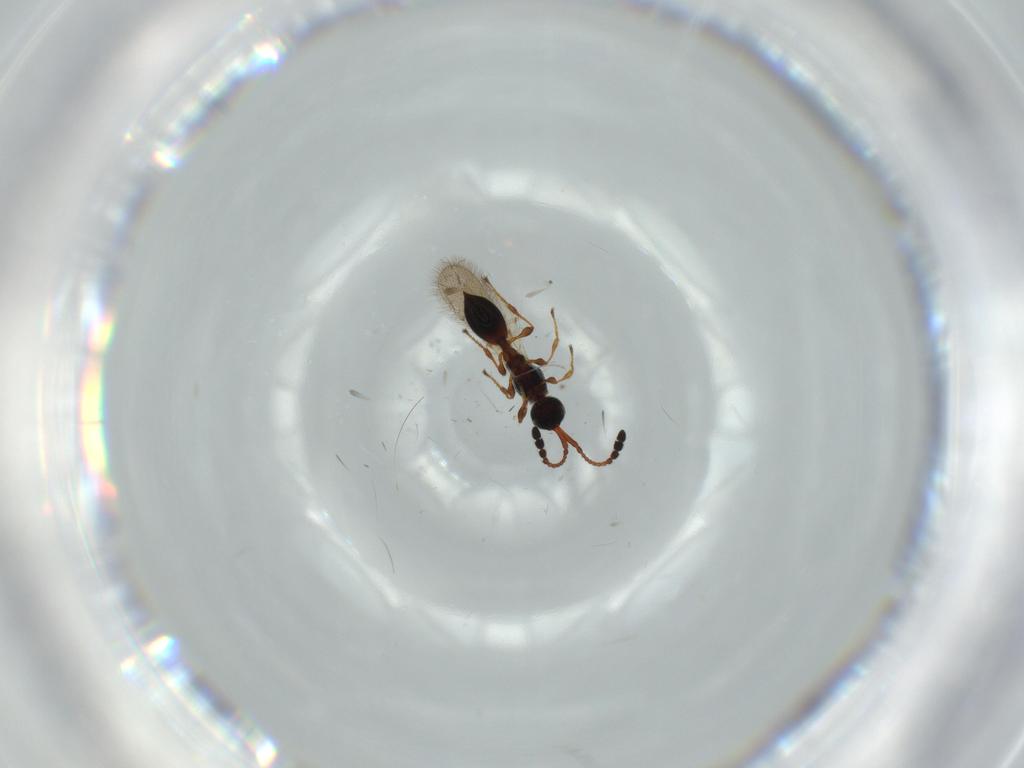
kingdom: Animalia
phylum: Arthropoda
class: Insecta
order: Hymenoptera
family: Diapriidae
